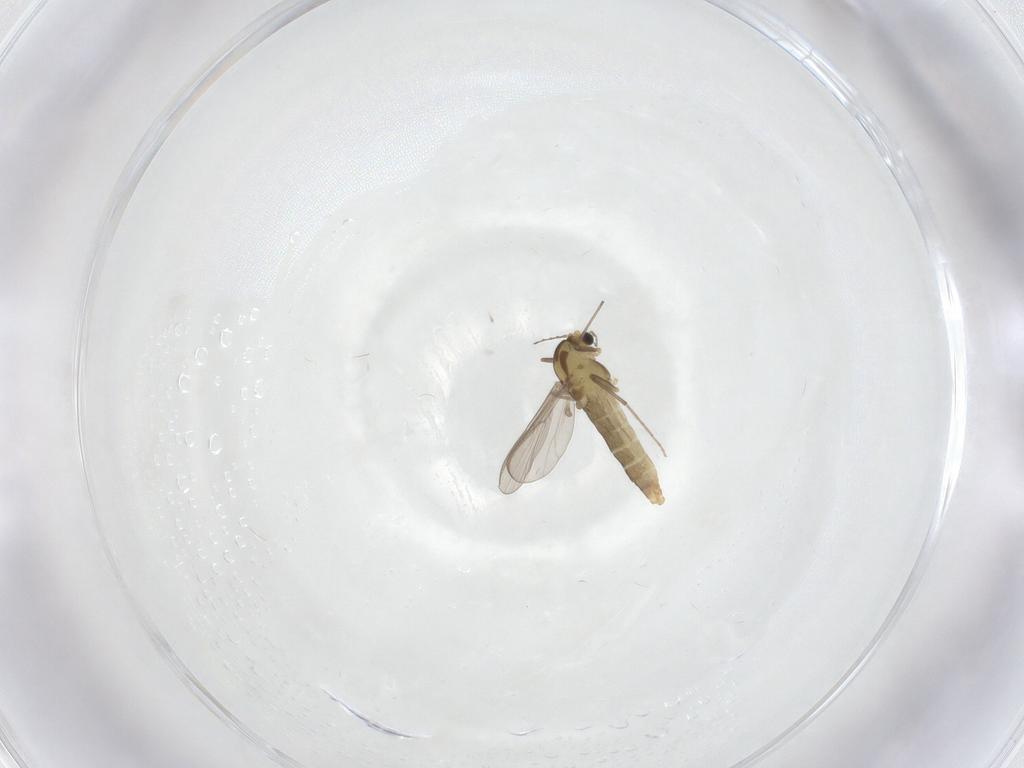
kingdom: Animalia
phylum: Arthropoda
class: Insecta
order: Diptera
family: Chironomidae
